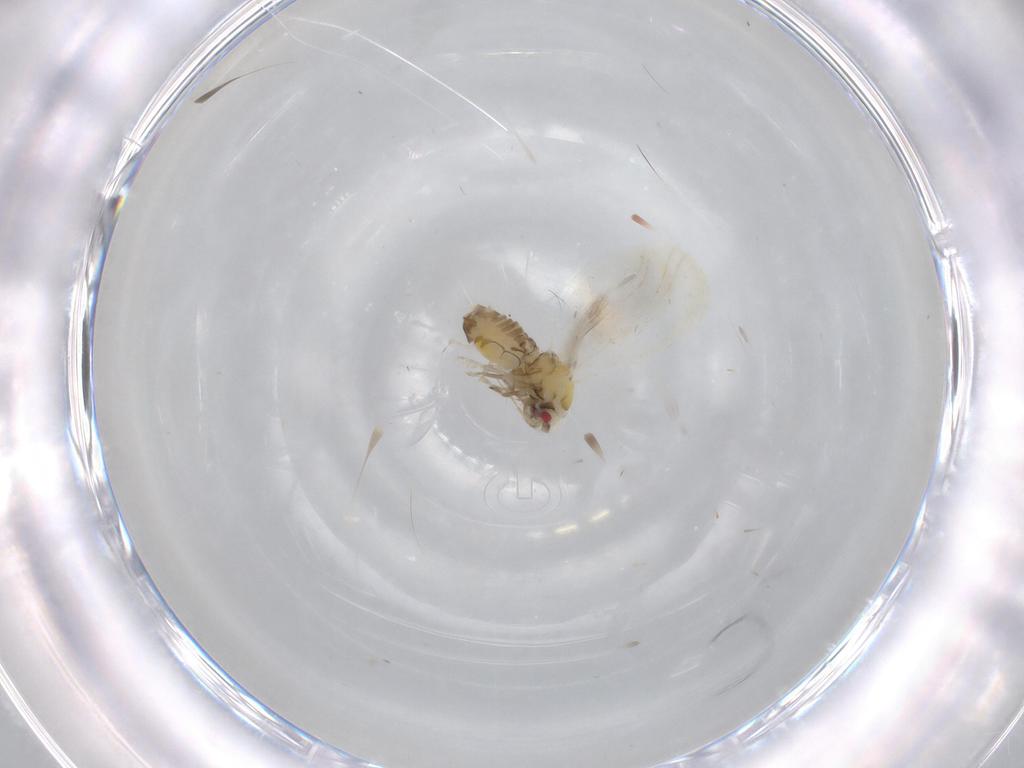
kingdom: Animalia
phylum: Arthropoda
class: Insecta
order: Hemiptera
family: Aleyrodidae
